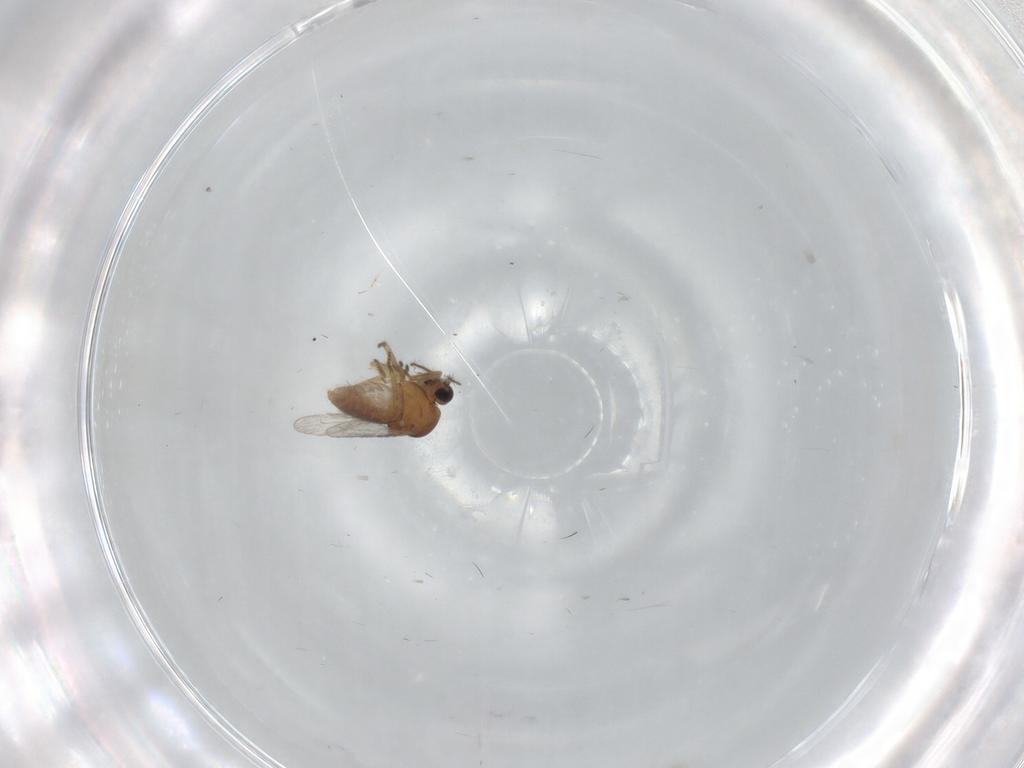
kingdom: Animalia
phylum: Arthropoda
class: Insecta
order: Diptera
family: Ceratopogonidae
